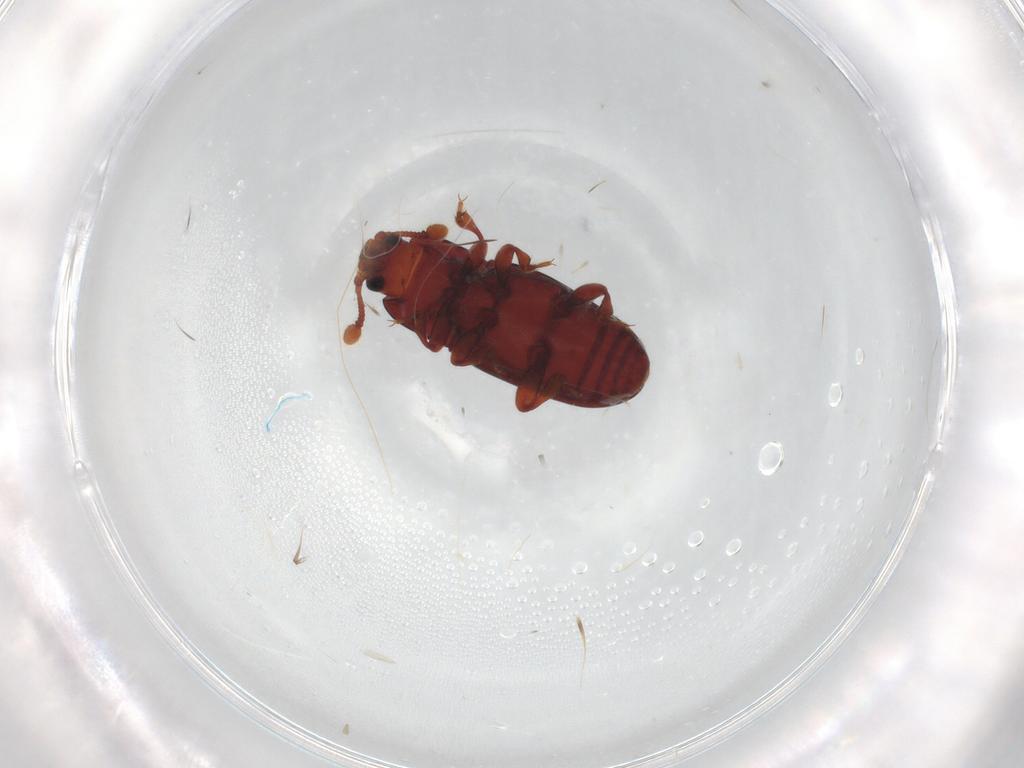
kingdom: Animalia
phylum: Arthropoda
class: Insecta
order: Coleoptera
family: Cerylonidae
